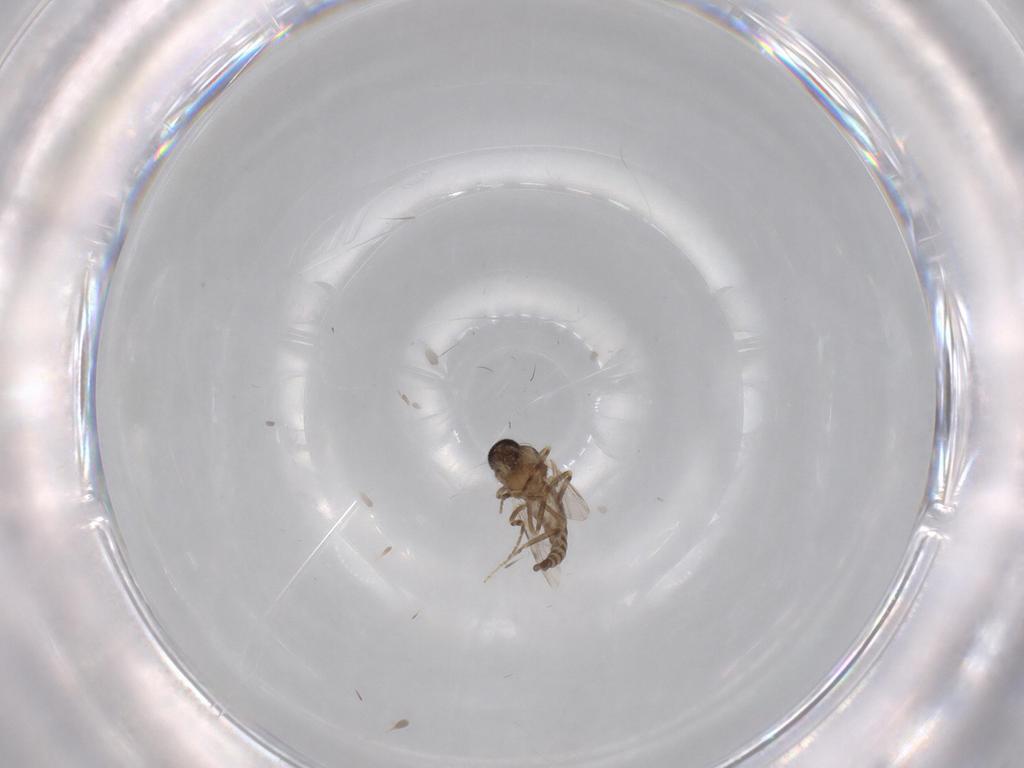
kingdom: Animalia
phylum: Arthropoda
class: Insecta
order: Diptera
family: Ceratopogonidae
